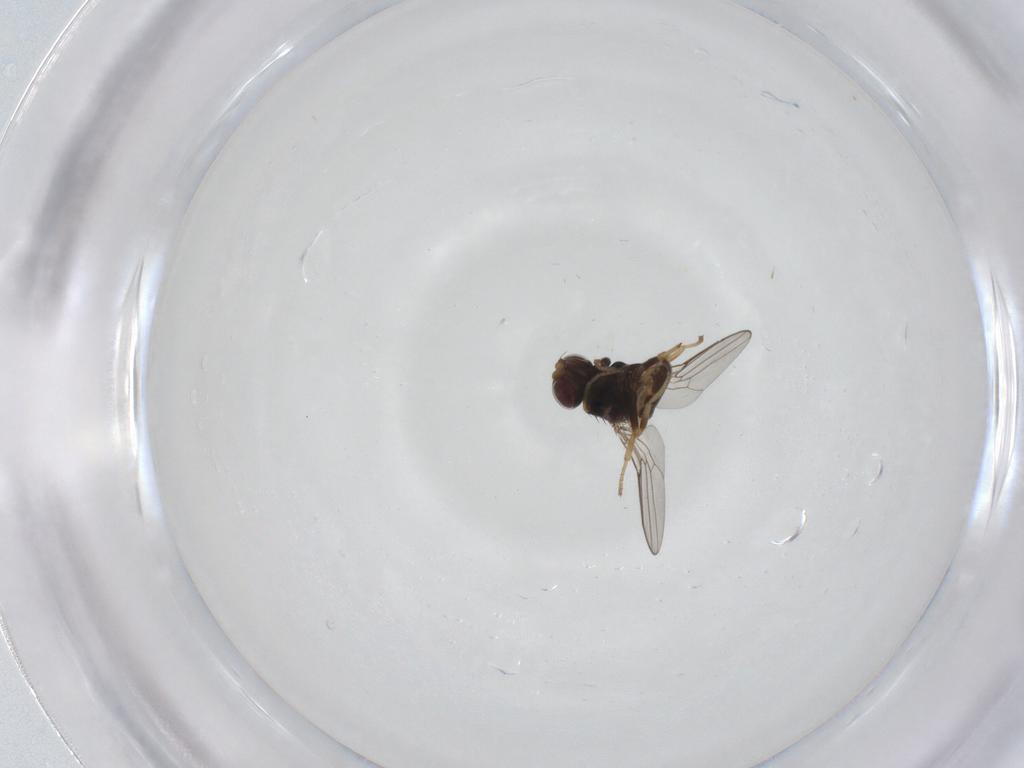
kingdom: Animalia
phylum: Arthropoda
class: Insecta
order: Diptera
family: Chloropidae
